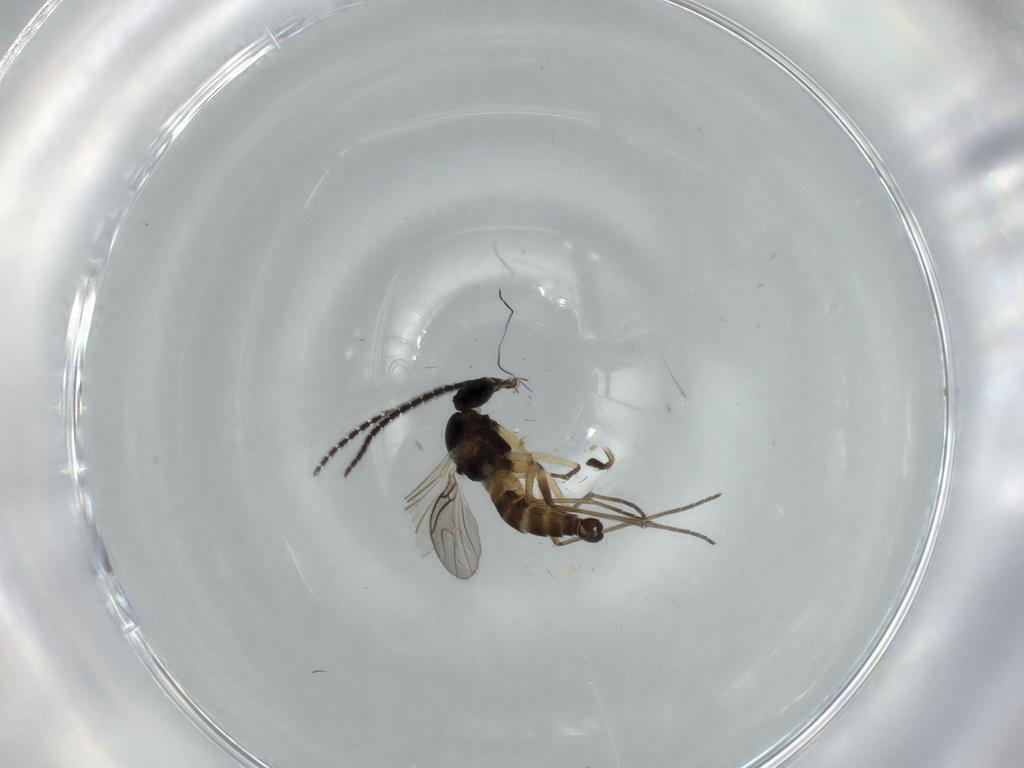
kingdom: Animalia
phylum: Arthropoda
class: Insecta
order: Diptera
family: Sciaridae
